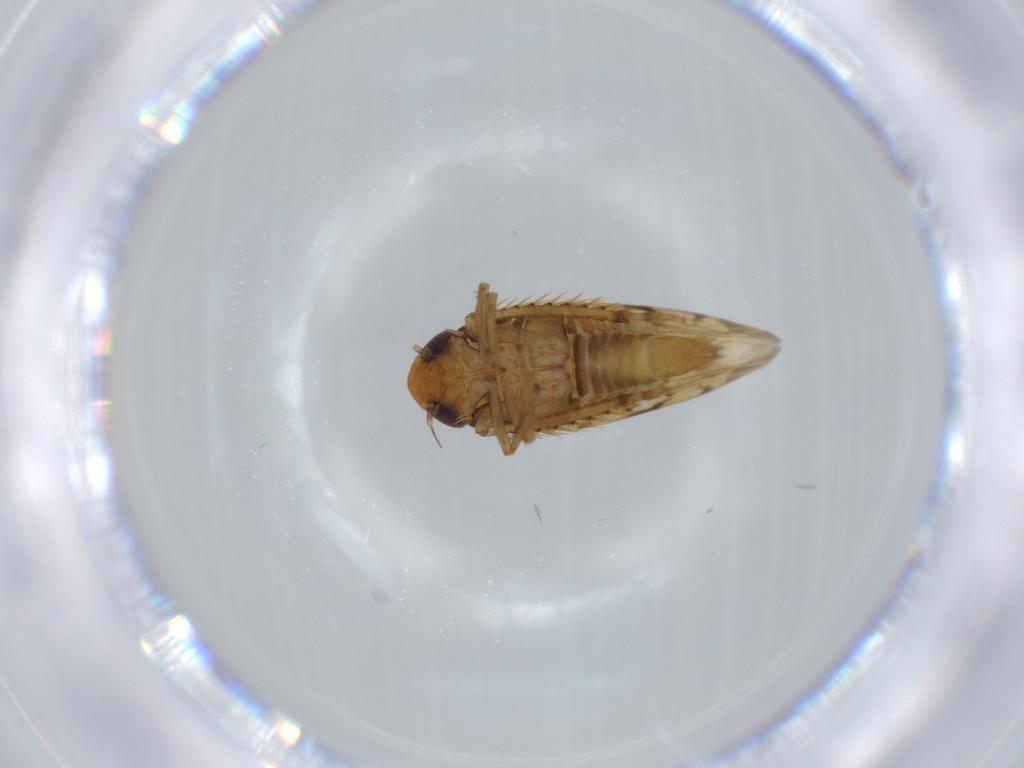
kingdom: Animalia
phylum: Arthropoda
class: Insecta
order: Hemiptera
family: Cicadellidae
